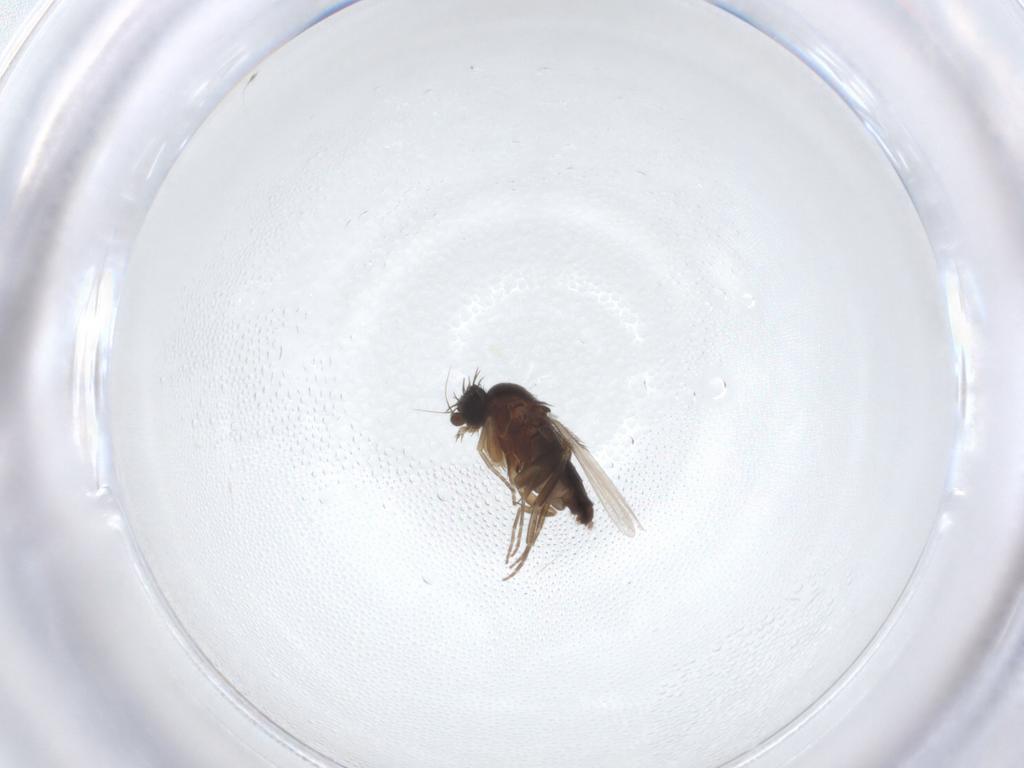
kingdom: Animalia
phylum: Arthropoda
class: Insecta
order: Diptera
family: Phoridae
